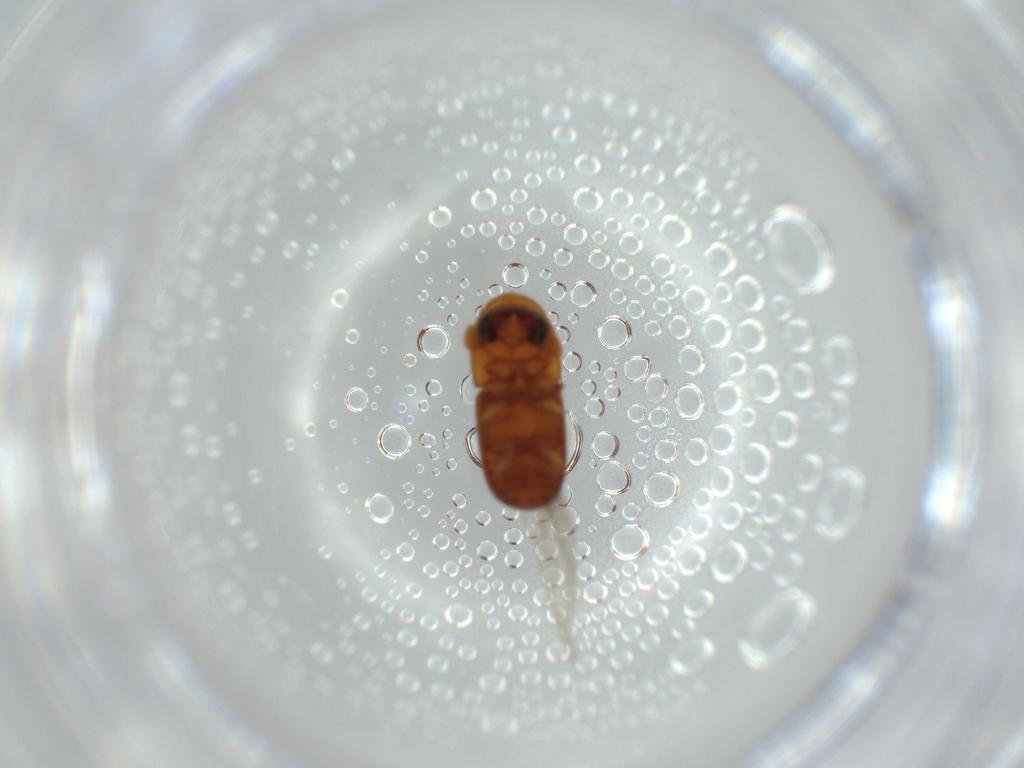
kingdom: Animalia
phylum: Arthropoda
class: Insecta
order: Coleoptera
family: Curculionidae
